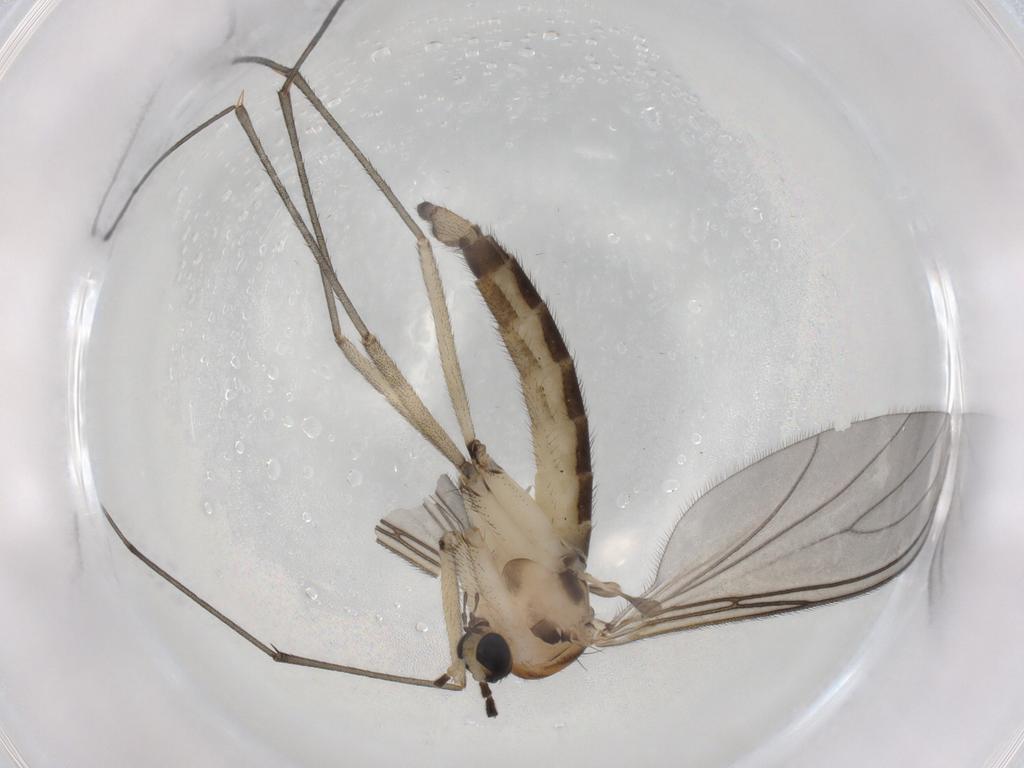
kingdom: Animalia
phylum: Arthropoda
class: Insecta
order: Diptera
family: Sciaridae
